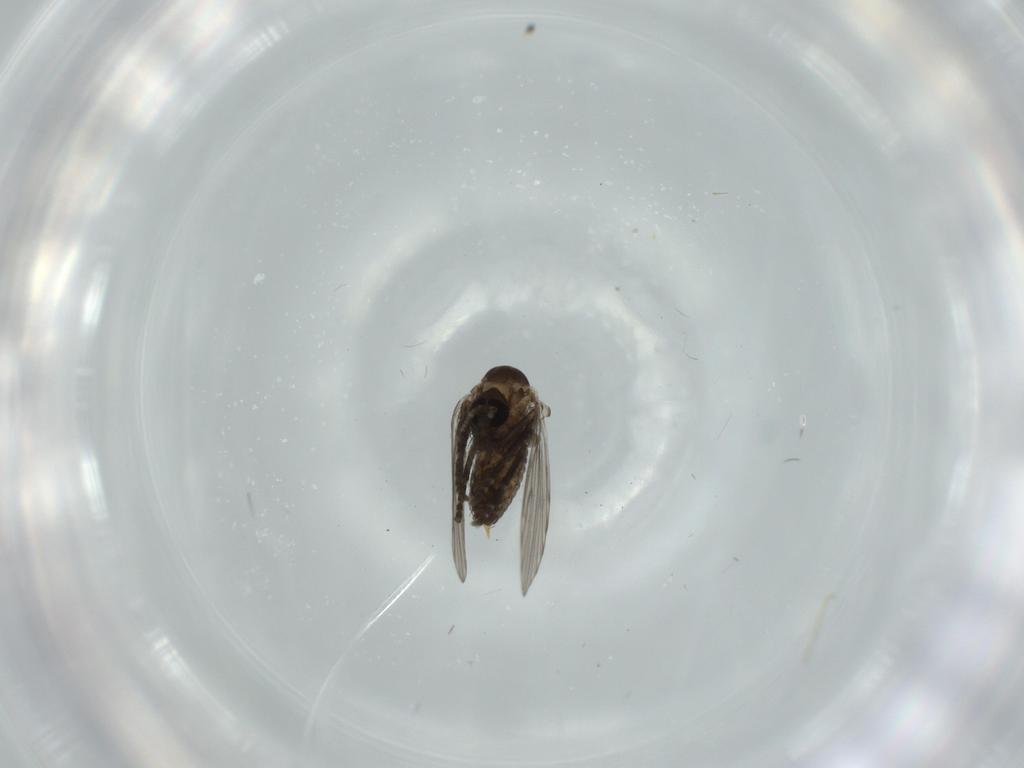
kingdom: Animalia
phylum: Arthropoda
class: Insecta
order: Diptera
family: Psychodidae
